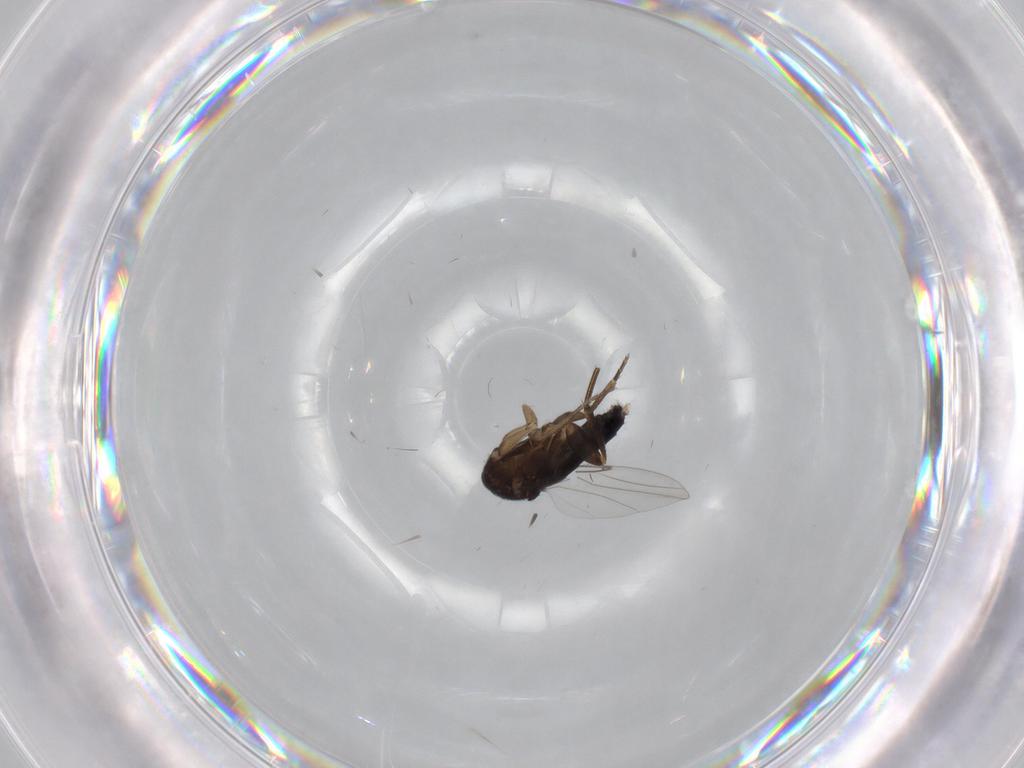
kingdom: Animalia
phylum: Arthropoda
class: Insecta
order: Diptera
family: Phoridae
